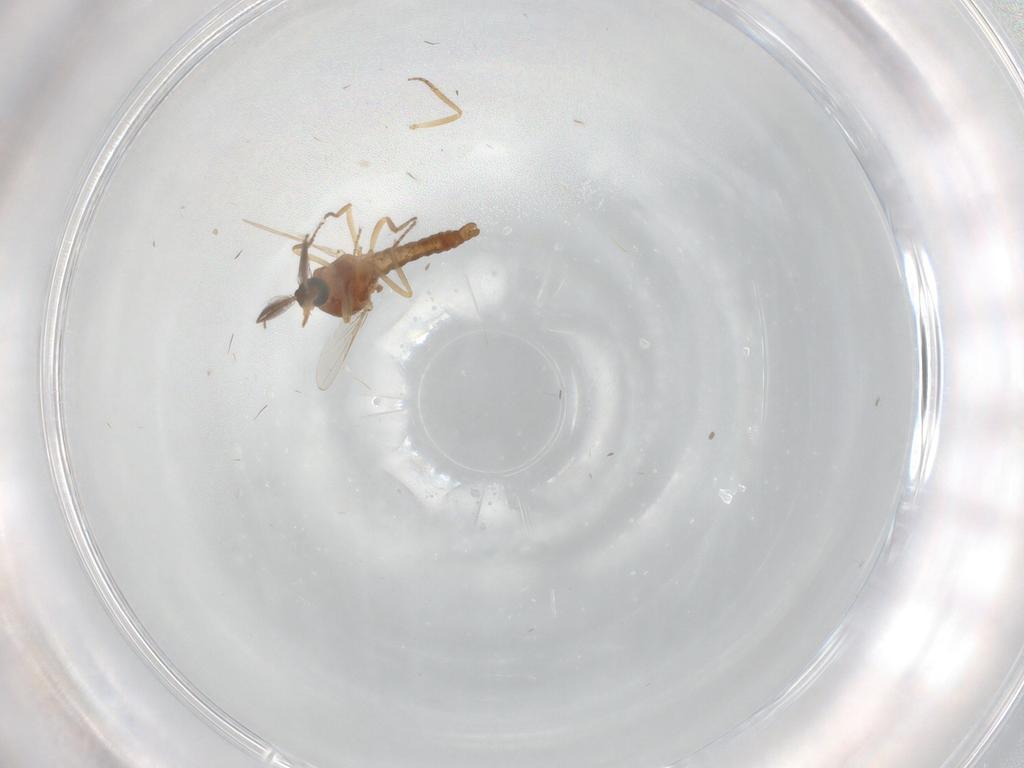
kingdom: Animalia
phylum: Arthropoda
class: Insecta
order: Diptera
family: Ceratopogonidae
